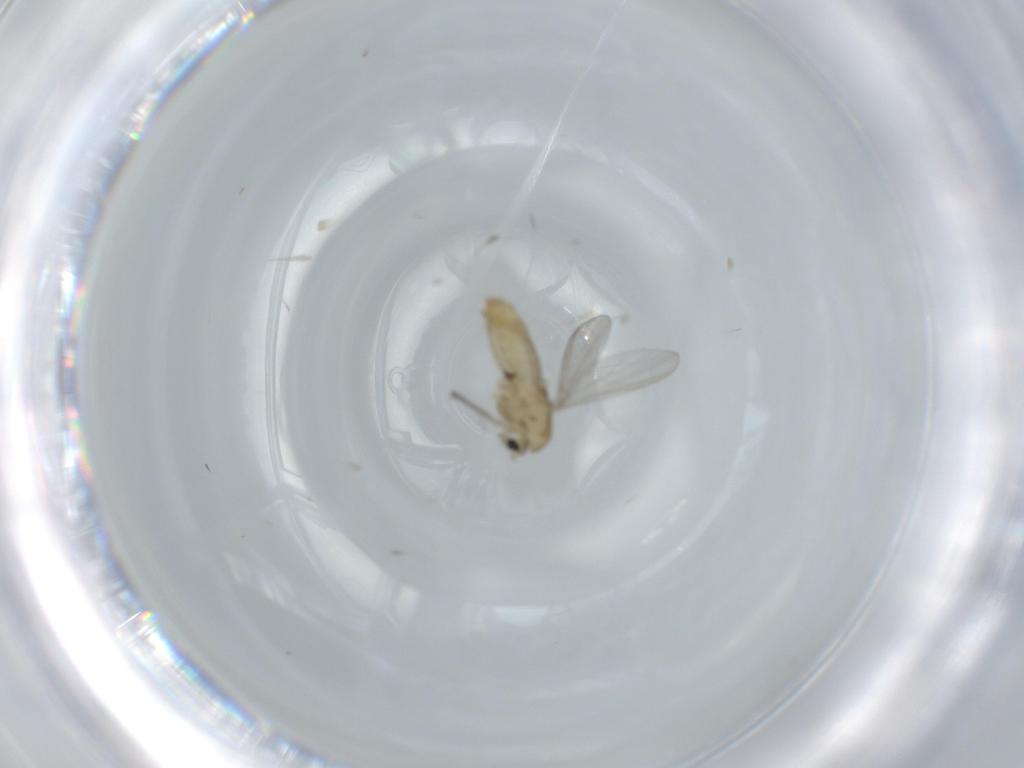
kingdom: Animalia
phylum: Arthropoda
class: Insecta
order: Diptera
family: Chironomidae
